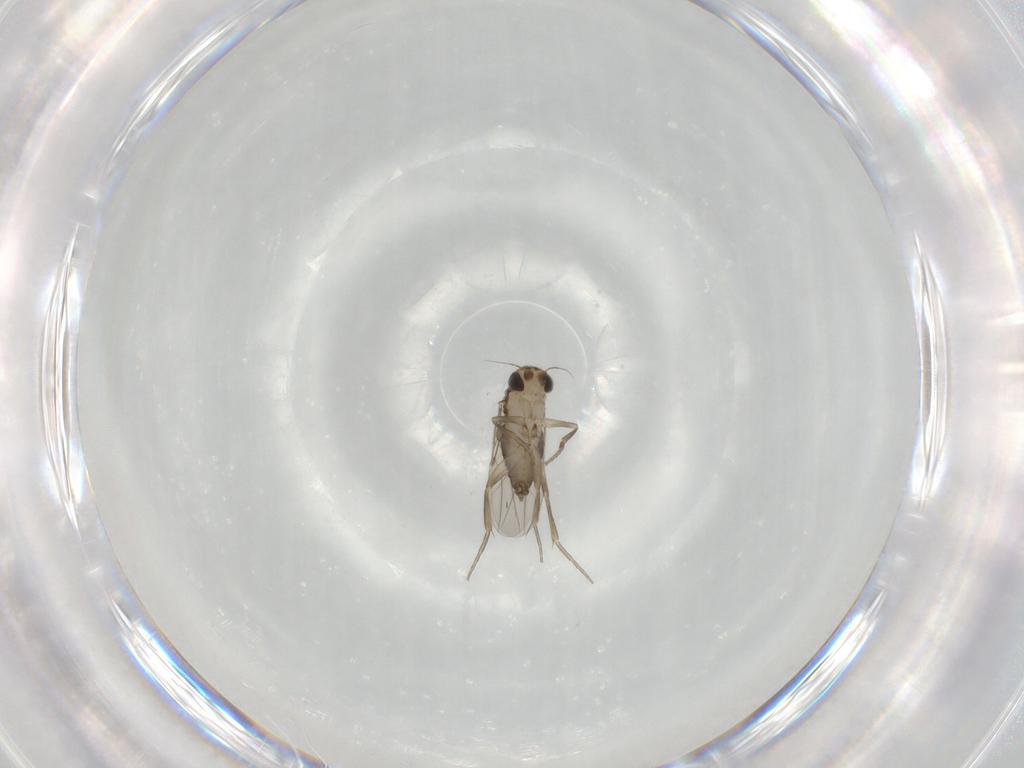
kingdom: Animalia
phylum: Arthropoda
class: Insecta
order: Diptera
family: Phoridae
